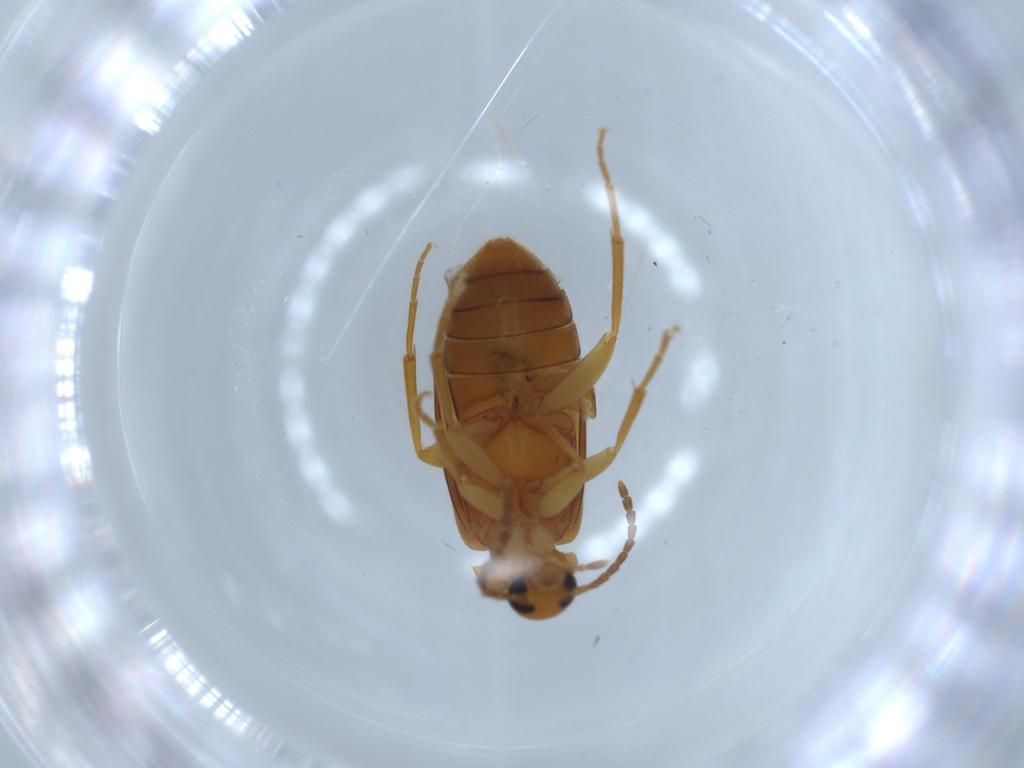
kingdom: Animalia
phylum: Arthropoda
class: Insecta
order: Coleoptera
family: Scraptiidae
